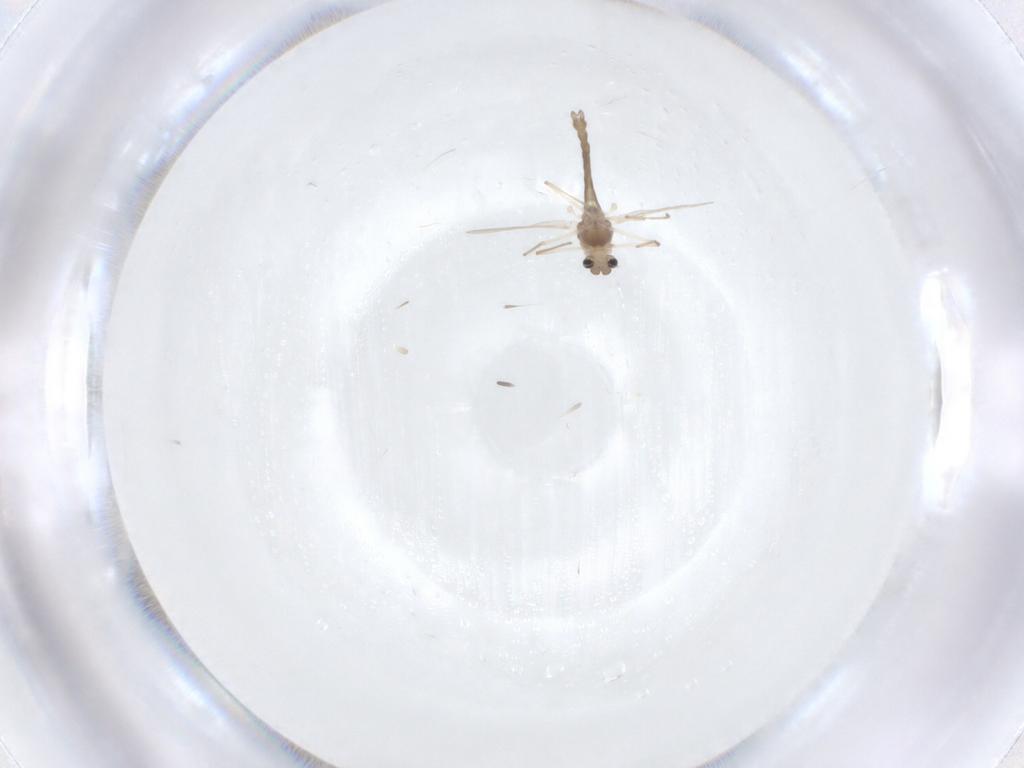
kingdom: Animalia
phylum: Arthropoda
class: Insecta
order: Diptera
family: Chironomidae
